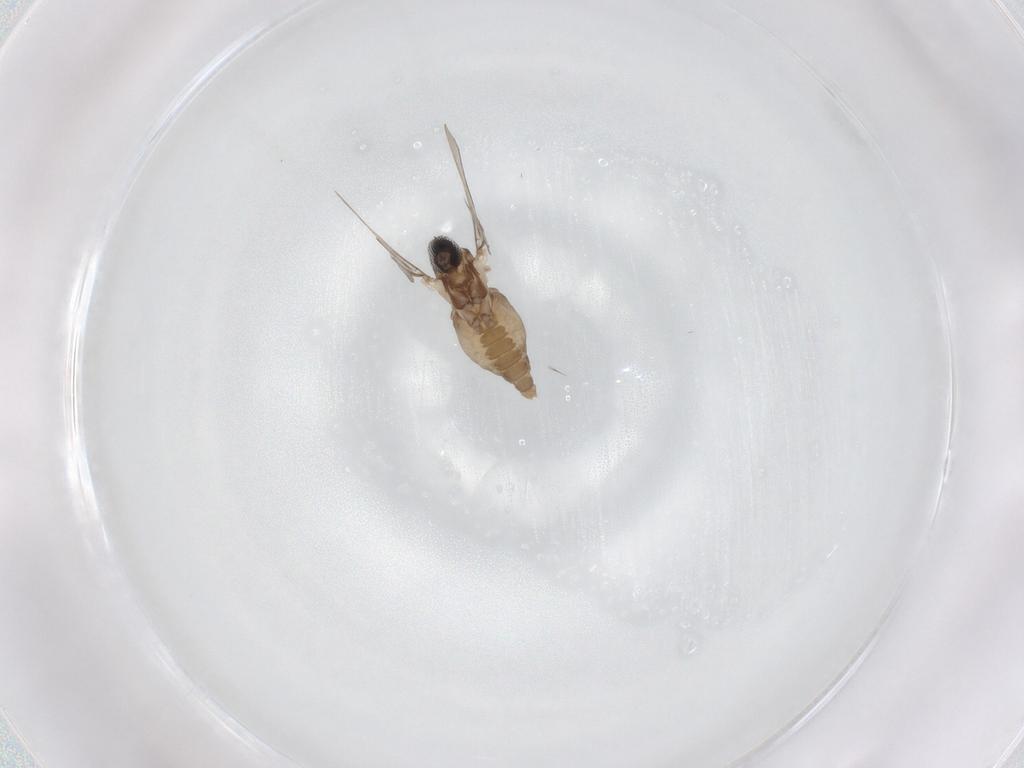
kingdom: Animalia
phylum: Arthropoda
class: Insecta
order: Diptera
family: Cecidomyiidae
